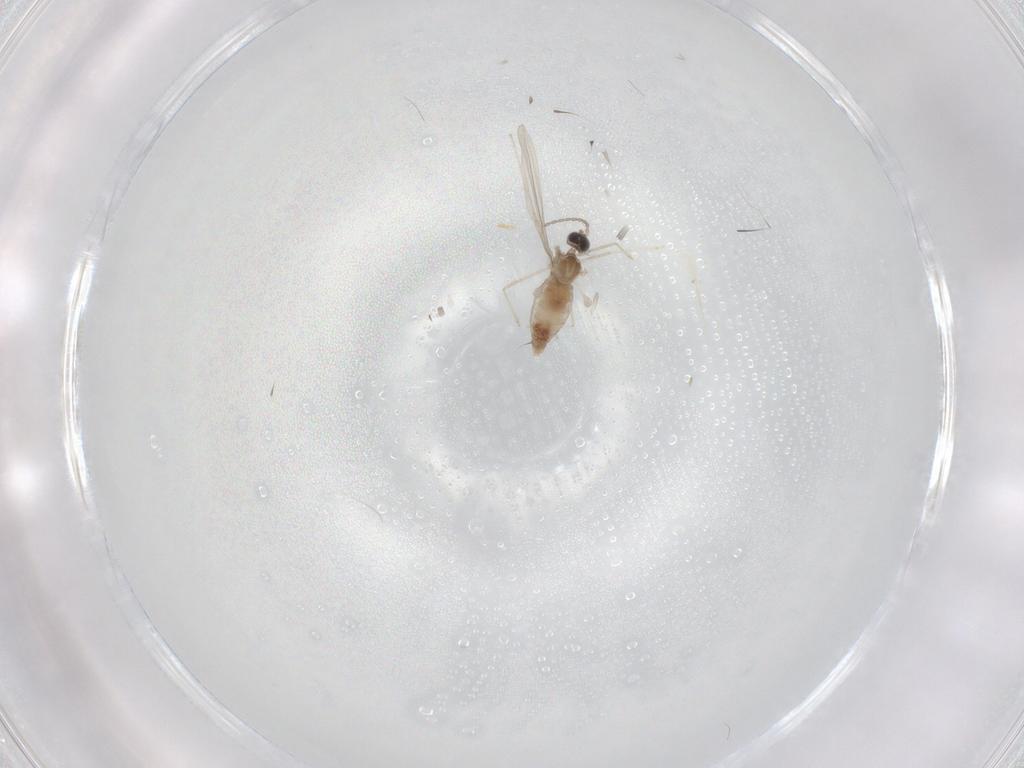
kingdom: Animalia
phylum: Arthropoda
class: Insecta
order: Diptera
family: Cecidomyiidae
